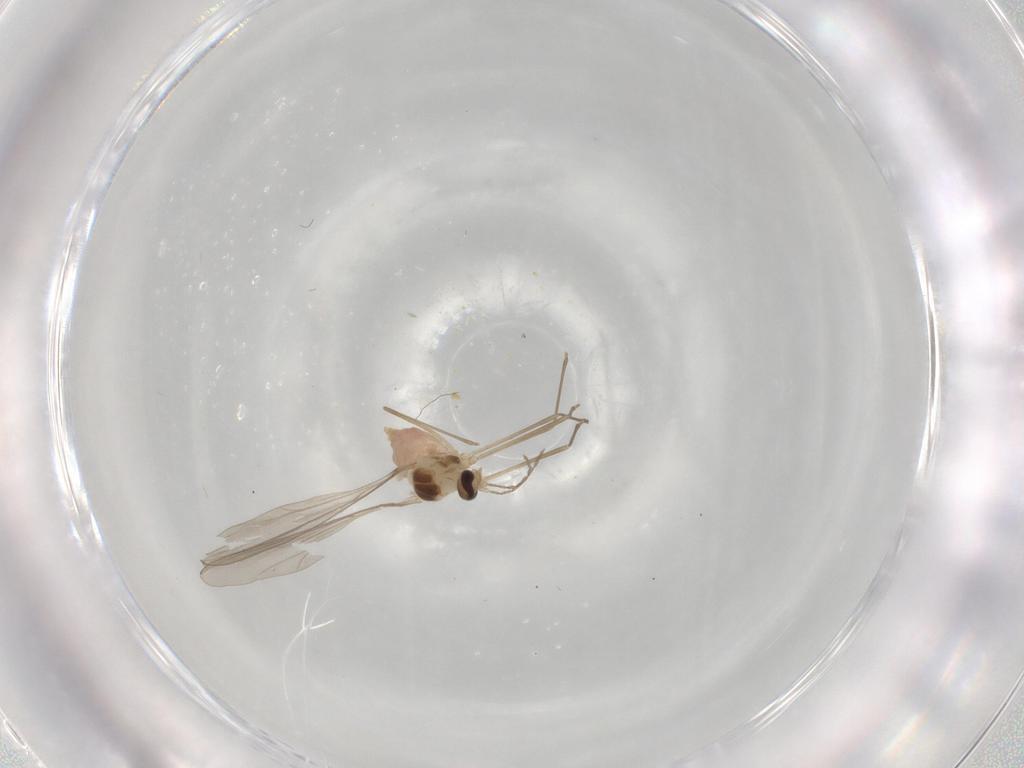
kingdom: Animalia
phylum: Arthropoda
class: Insecta
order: Diptera
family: Cecidomyiidae
